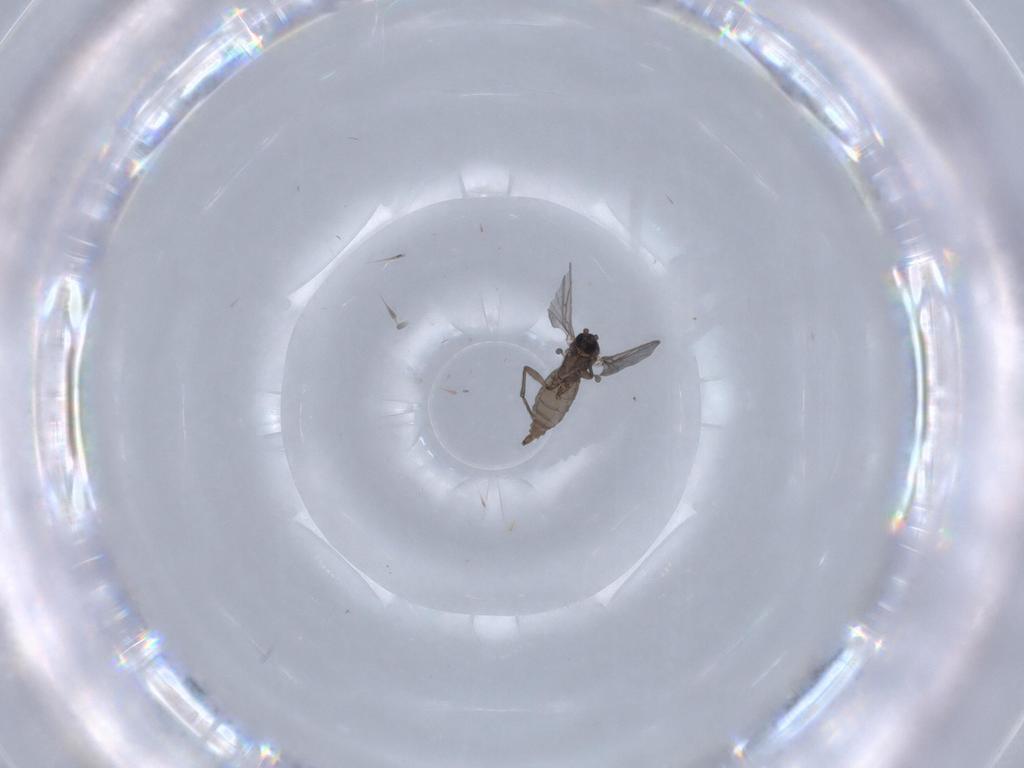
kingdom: Animalia
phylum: Arthropoda
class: Insecta
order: Diptera
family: Sciaridae
